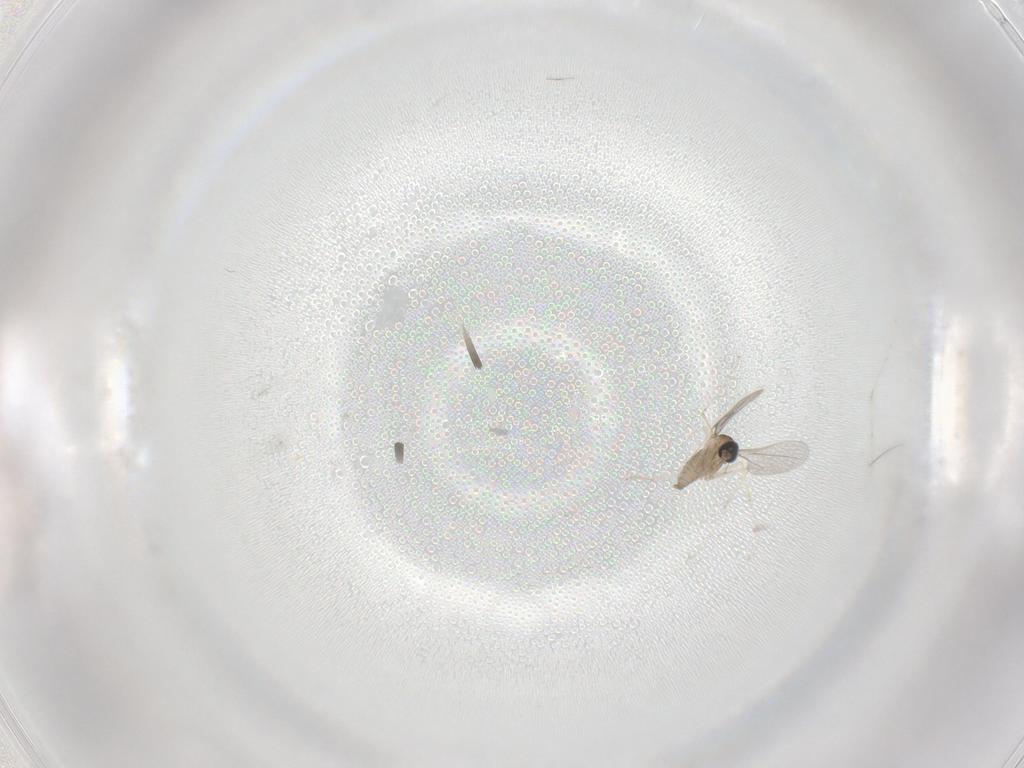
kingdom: Animalia
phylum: Arthropoda
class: Insecta
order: Diptera
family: Cecidomyiidae
